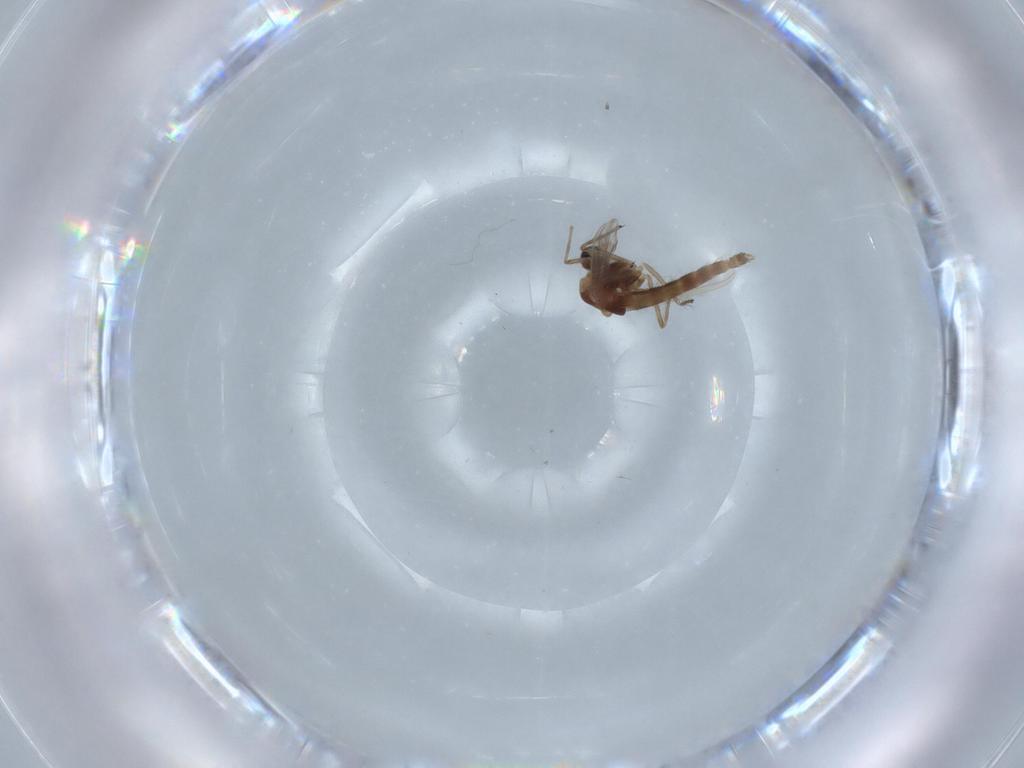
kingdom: Animalia
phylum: Arthropoda
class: Insecta
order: Diptera
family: Chironomidae
